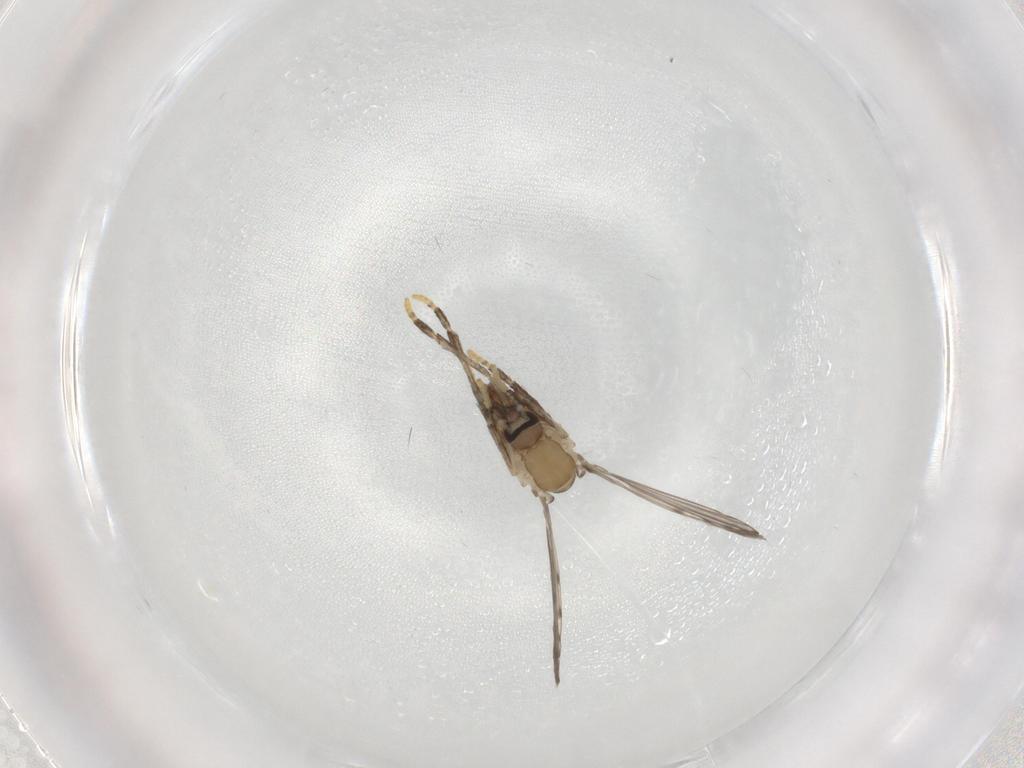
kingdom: Animalia
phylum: Arthropoda
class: Insecta
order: Diptera
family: Psychodidae
